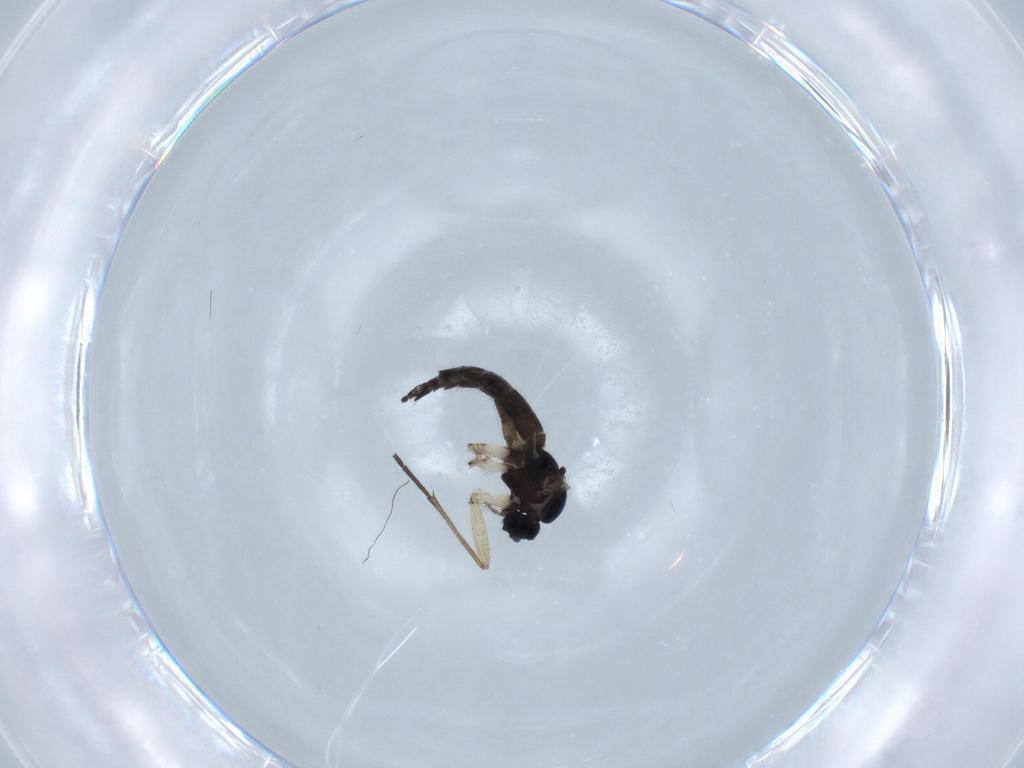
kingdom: Animalia
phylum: Arthropoda
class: Insecta
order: Diptera
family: Sciaridae
